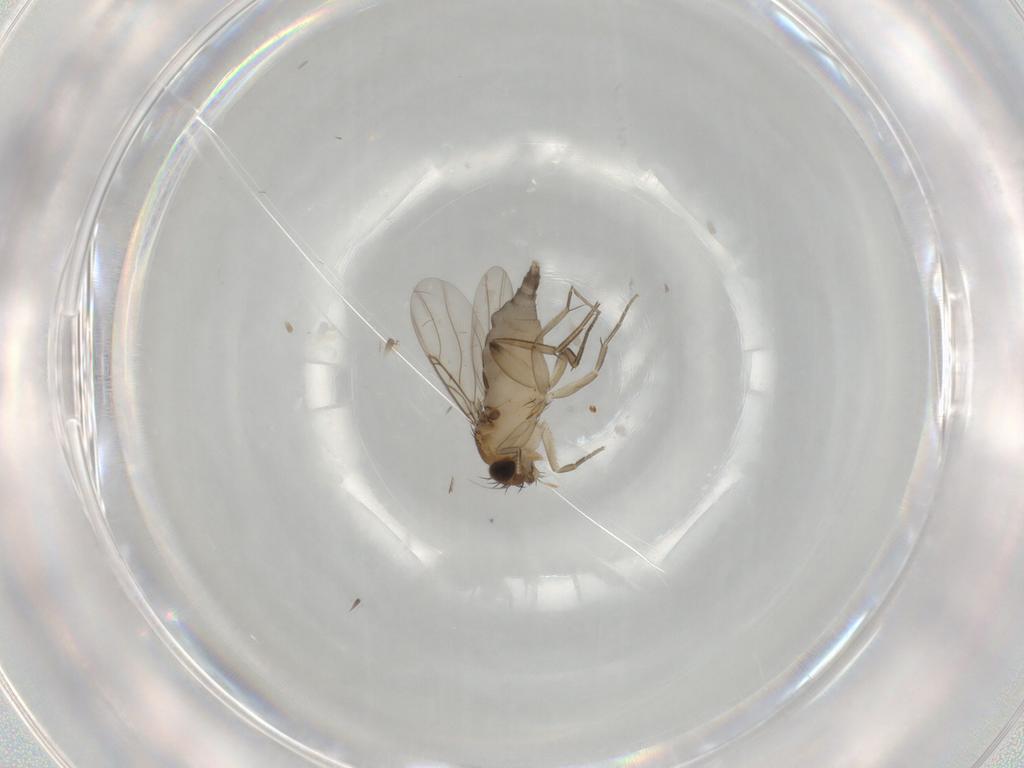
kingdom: Animalia
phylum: Arthropoda
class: Insecta
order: Diptera
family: Phoridae
